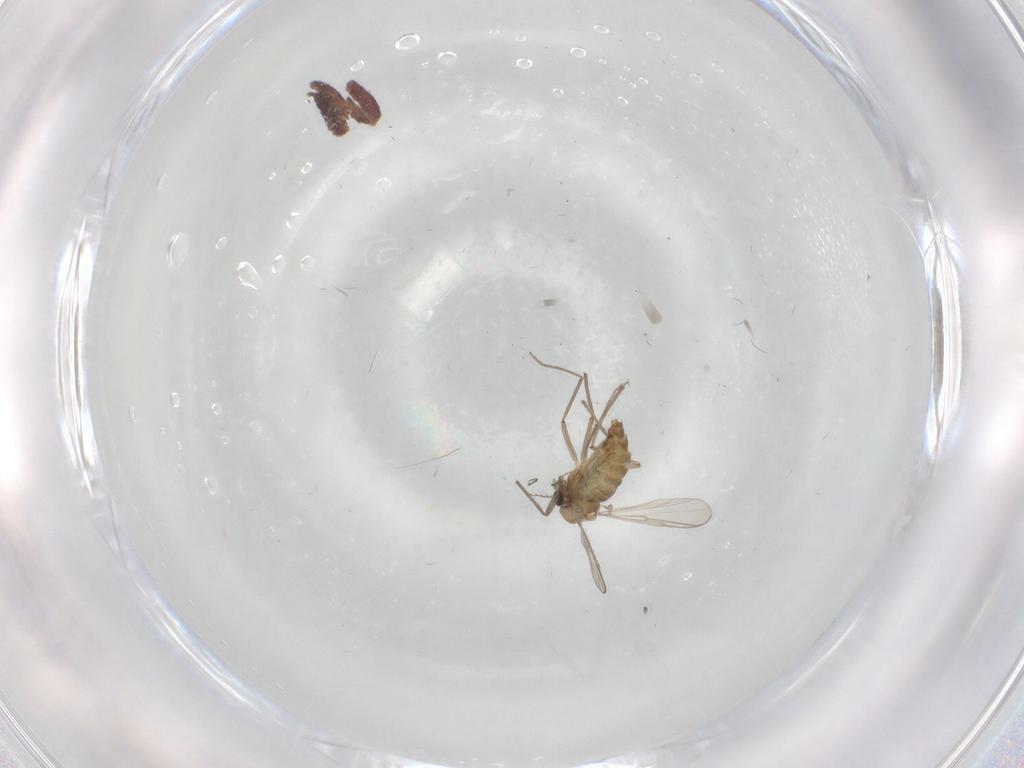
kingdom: Animalia
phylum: Arthropoda
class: Insecta
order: Diptera
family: Chironomidae
